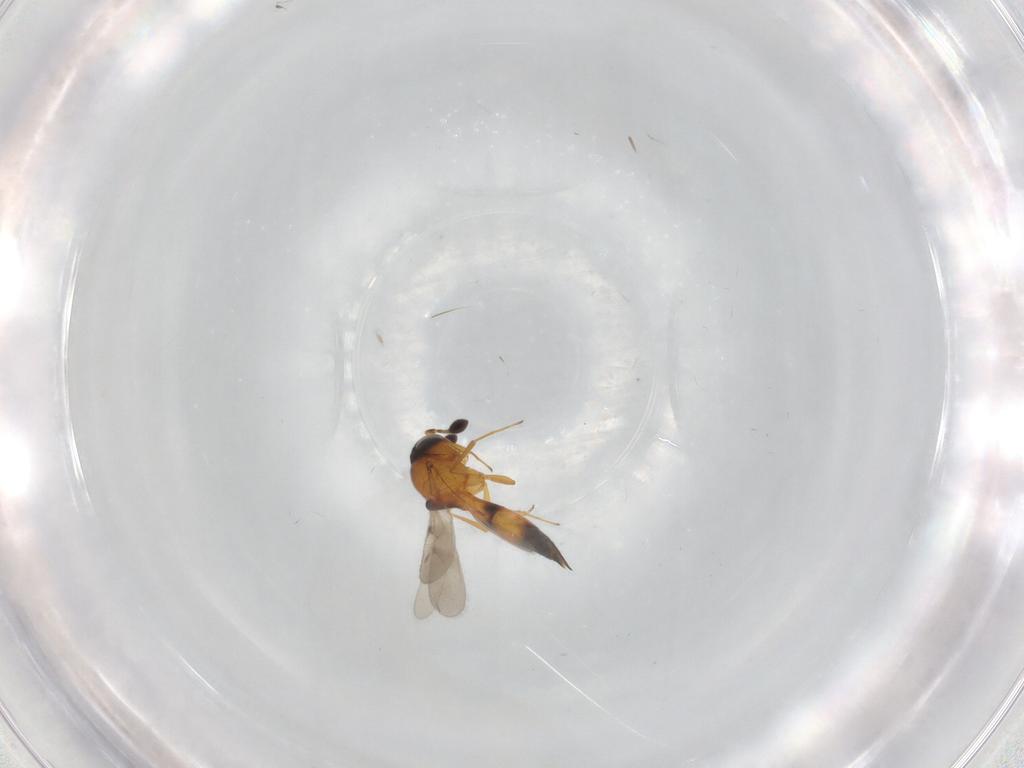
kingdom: Animalia
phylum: Arthropoda
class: Insecta
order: Hymenoptera
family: Scelionidae
